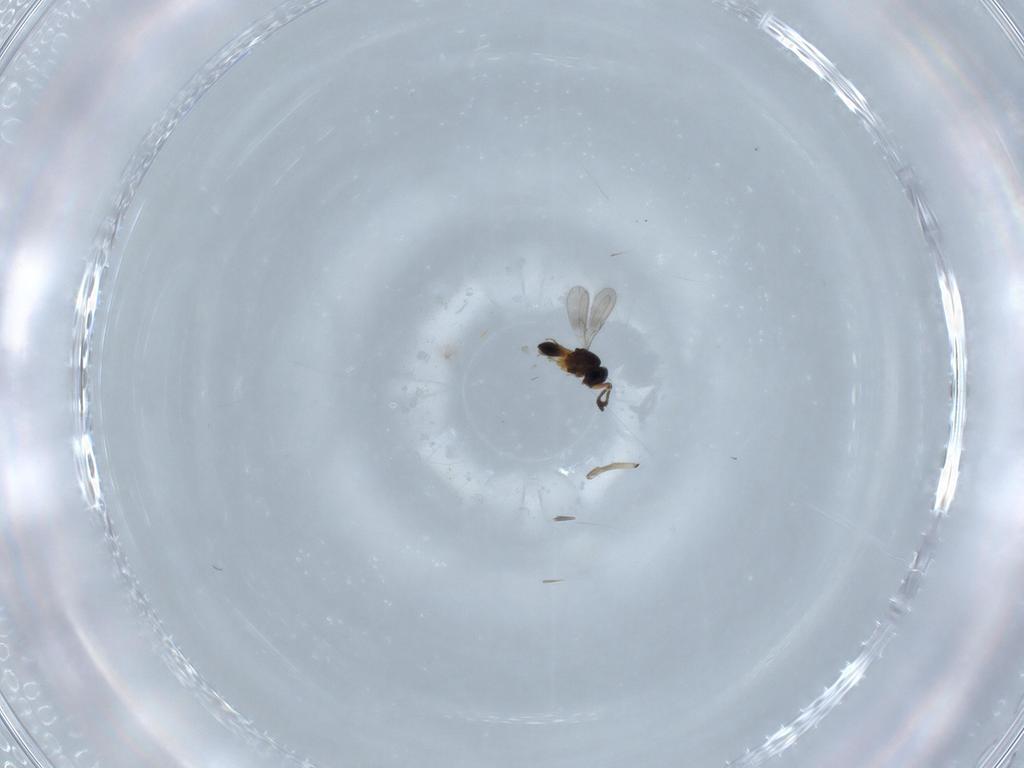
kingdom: Animalia
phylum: Arthropoda
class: Insecta
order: Hymenoptera
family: Scelionidae
